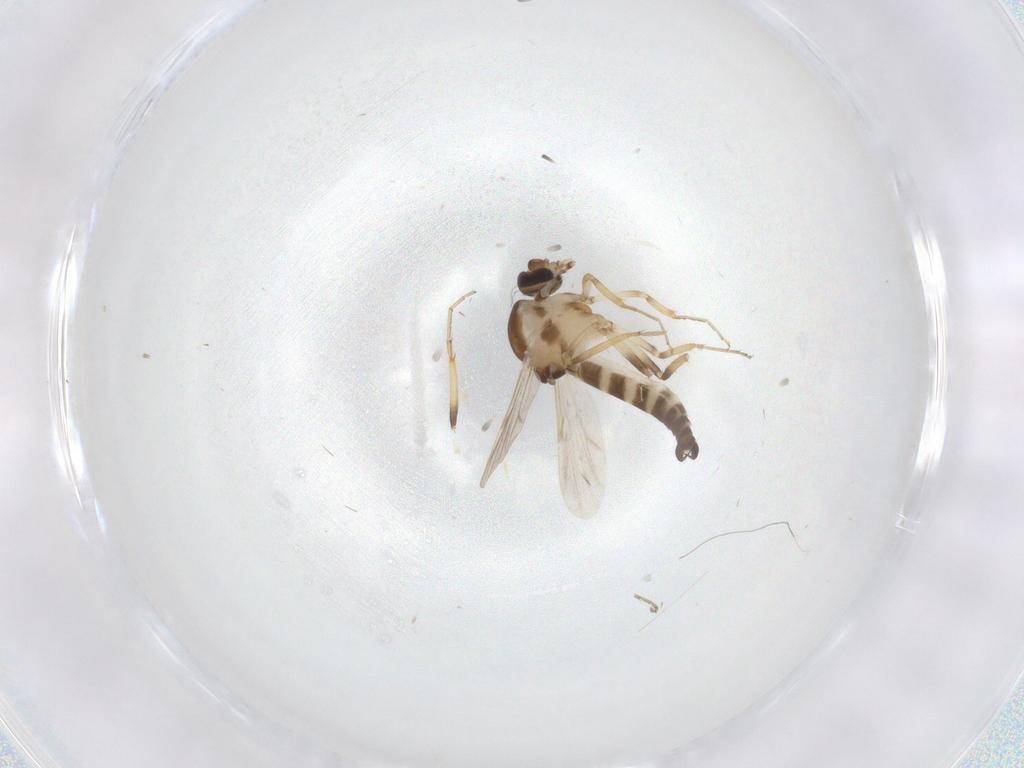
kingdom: Animalia
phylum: Arthropoda
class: Insecta
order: Diptera
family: Ceratopogonidae
